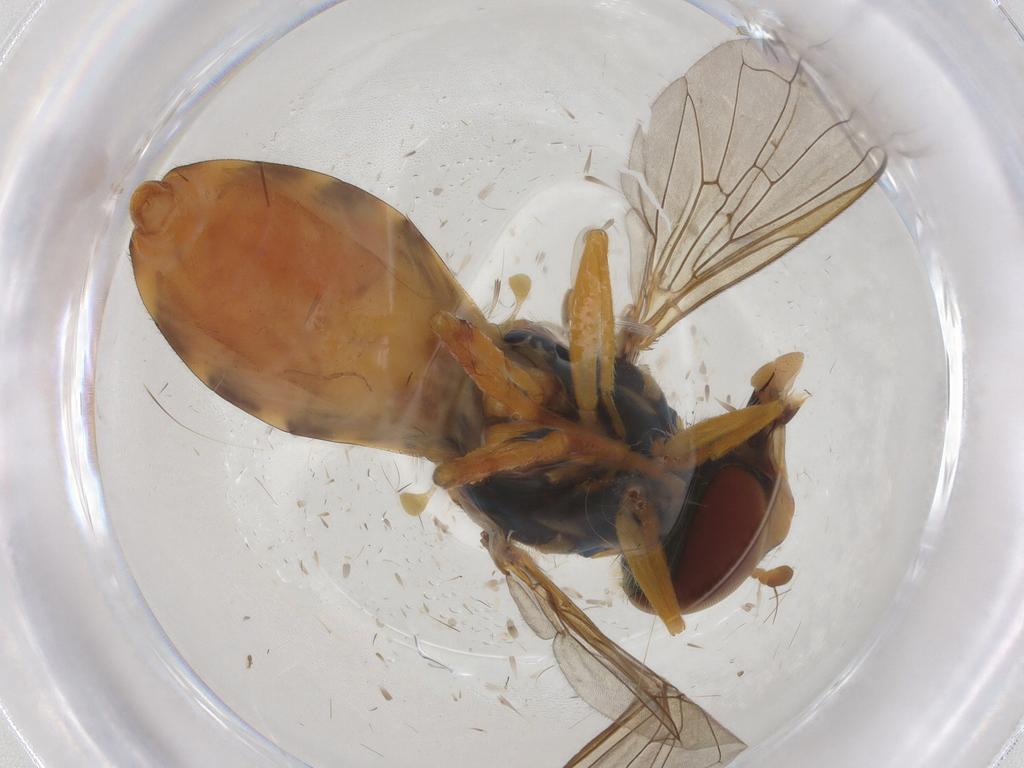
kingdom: Animalia
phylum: Arthropoda
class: Insecta
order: Diptera
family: Syrphidae
